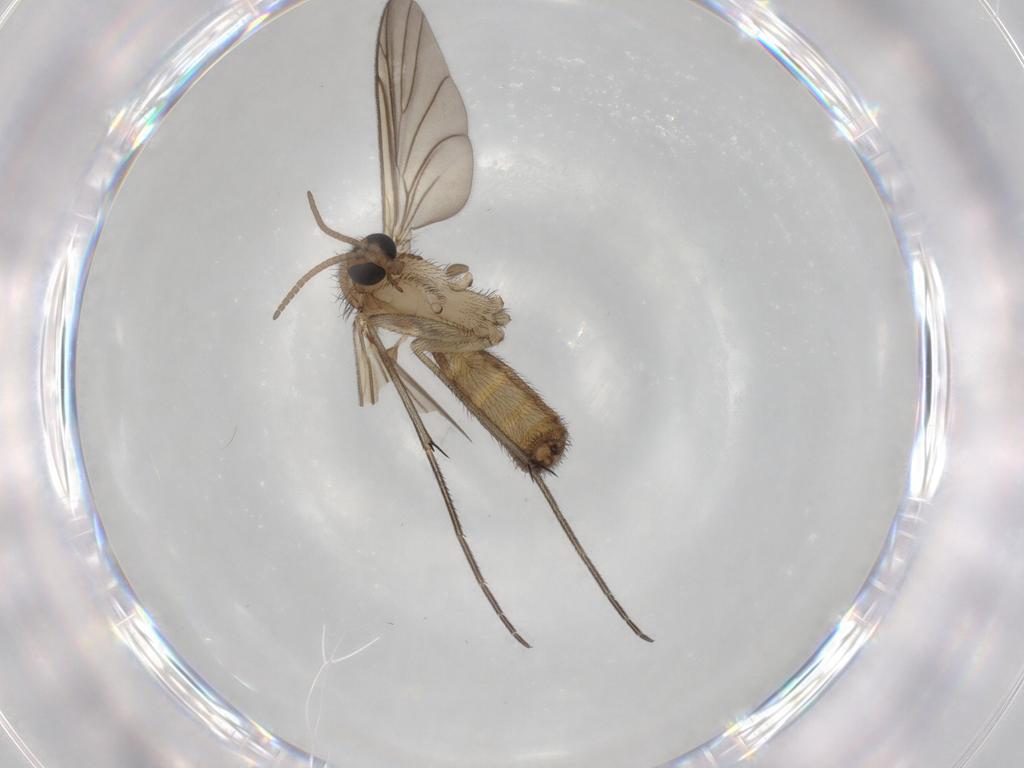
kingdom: Animalia
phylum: Arthropoda
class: Insecta
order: Diptera
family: Keroplatidae
